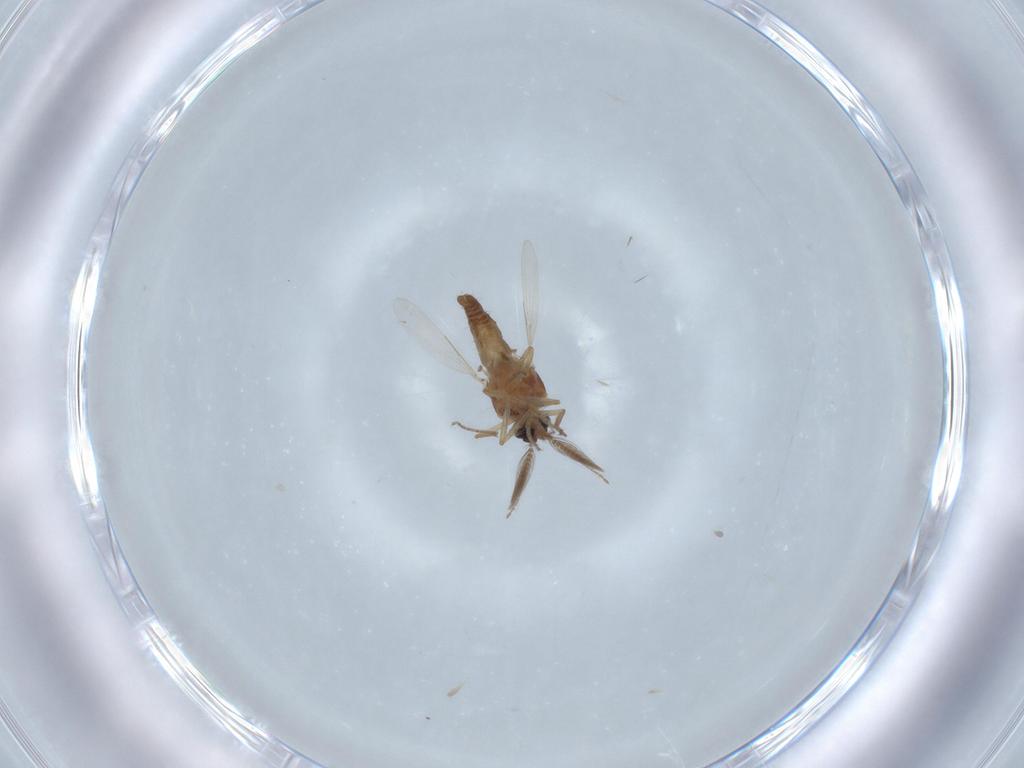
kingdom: Animalia
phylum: Arthropoda
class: Insecta
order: Diptera
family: Ceratopogonidae
